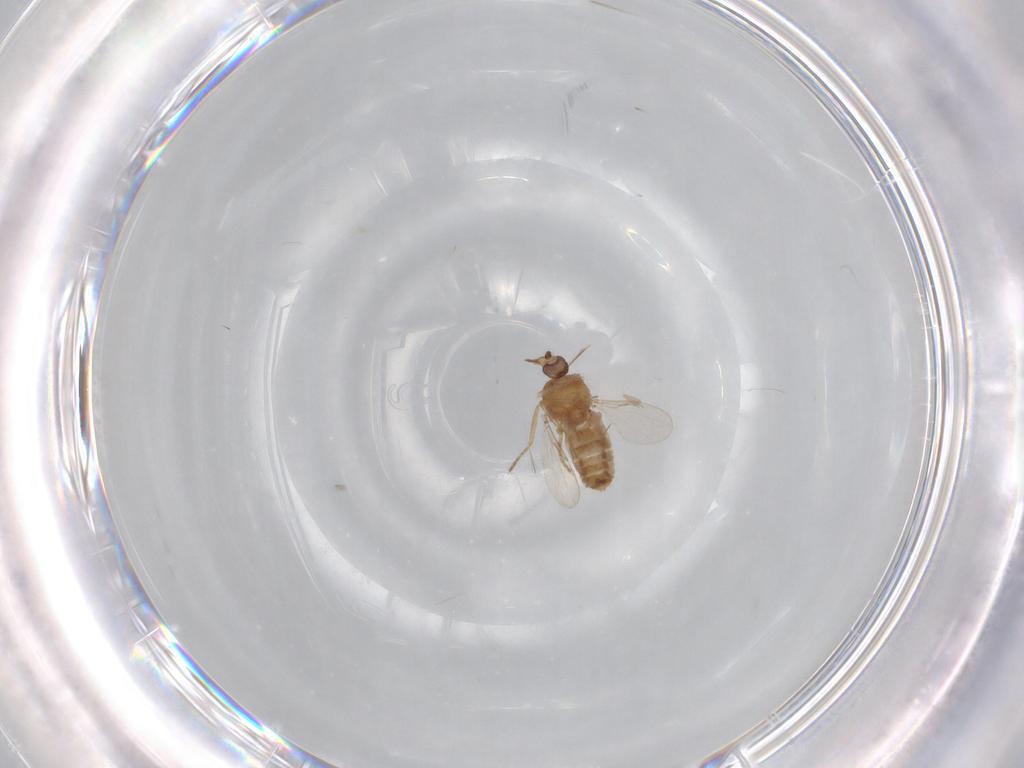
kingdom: Animalia
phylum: Arthropoda
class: Insecta
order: Diptera
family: Ceratopogonidae
